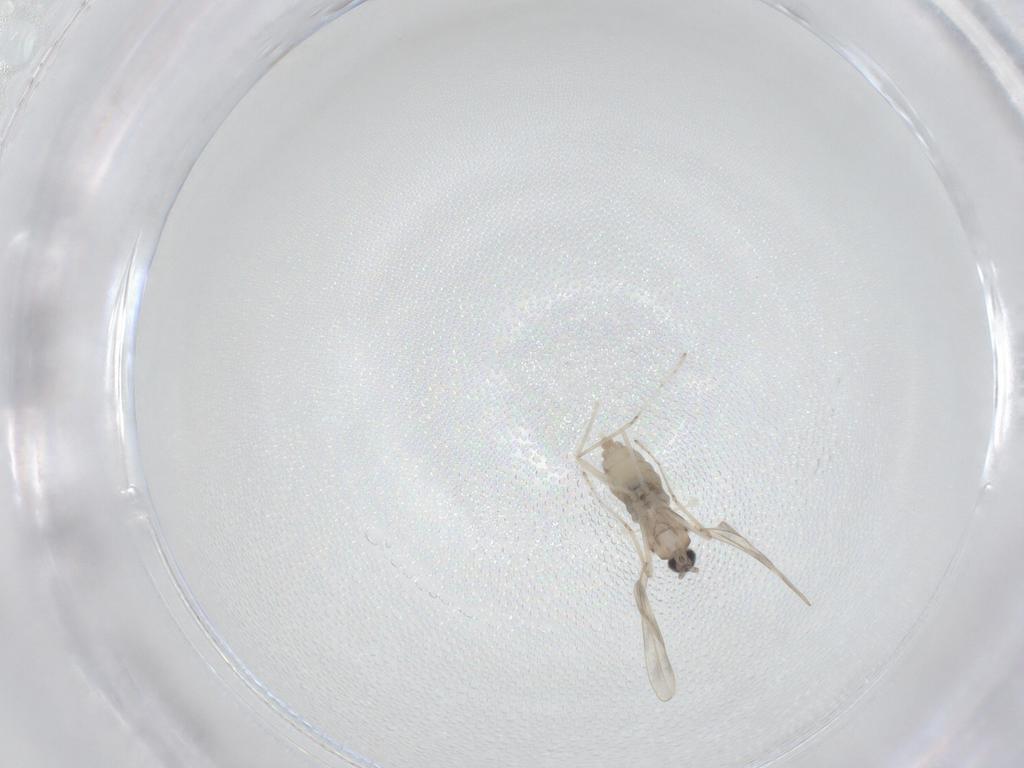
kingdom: Animalia
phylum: Arthropoda
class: Insecta
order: Diptera
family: Cecidomyiidae
